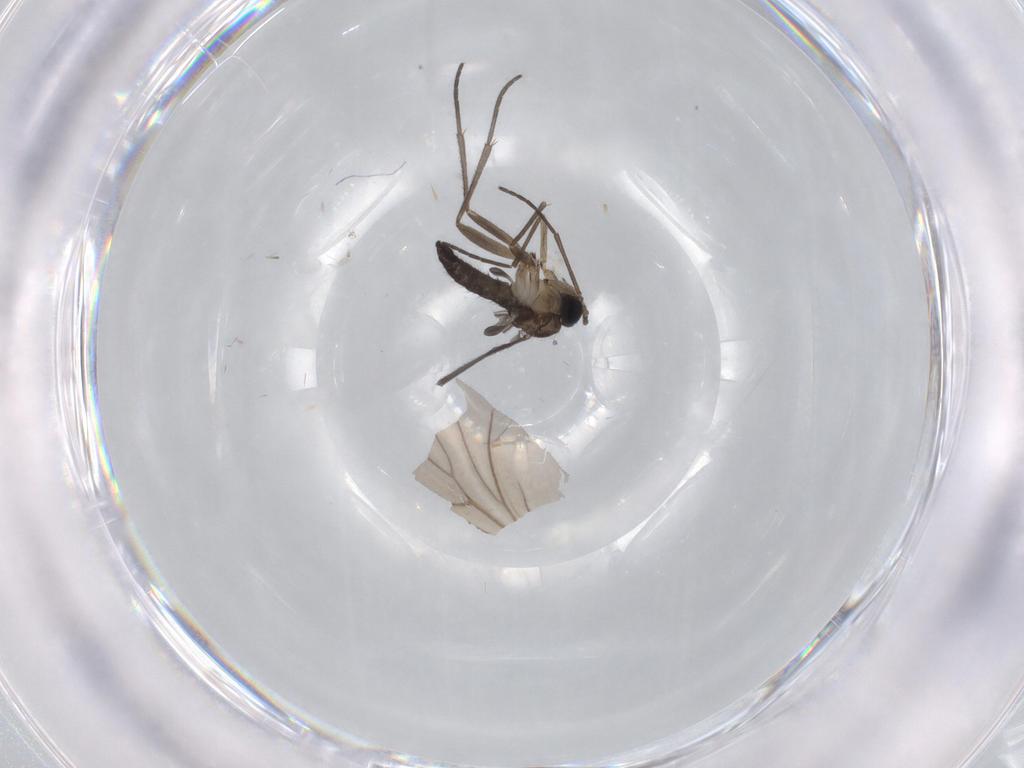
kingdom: Animalia
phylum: Arthropoda
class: Insecta
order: Diptera
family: Sciaridae
